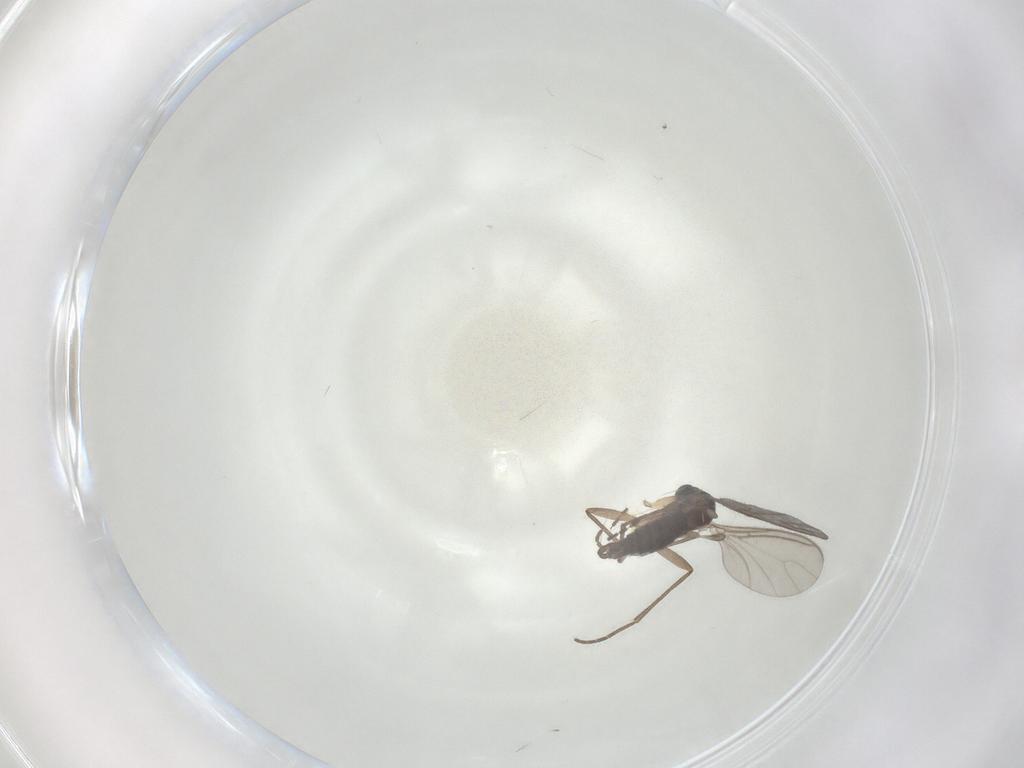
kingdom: Animalia
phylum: Arthropoda
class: Insecta
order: Diptera
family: Sciaridae
